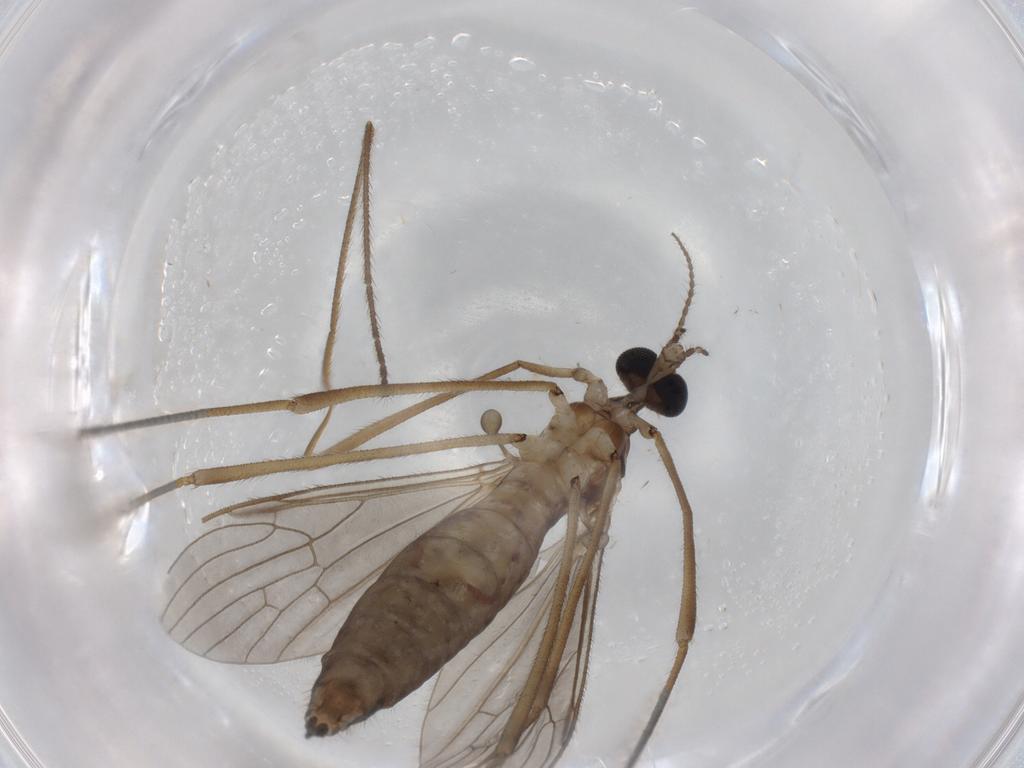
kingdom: Animalia
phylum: Arthropoda
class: Insecta
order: Diptera
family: Limoniidae
